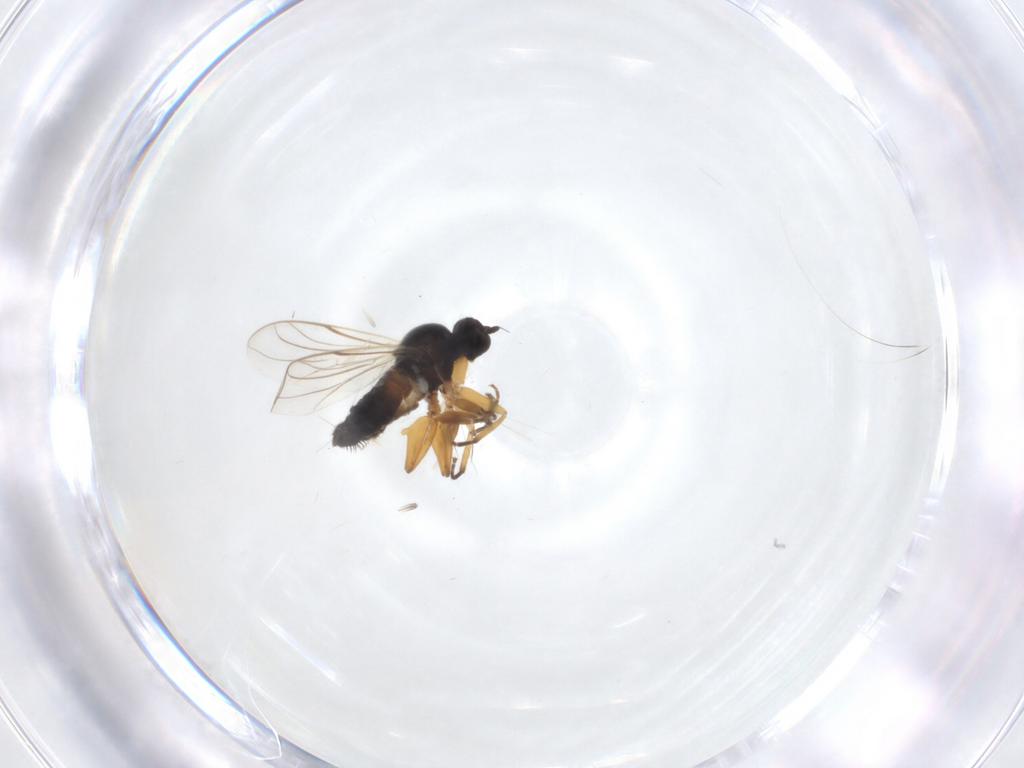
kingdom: Animalia
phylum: Arthropoda
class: Insecta
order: Diptera
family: Hybotidae
